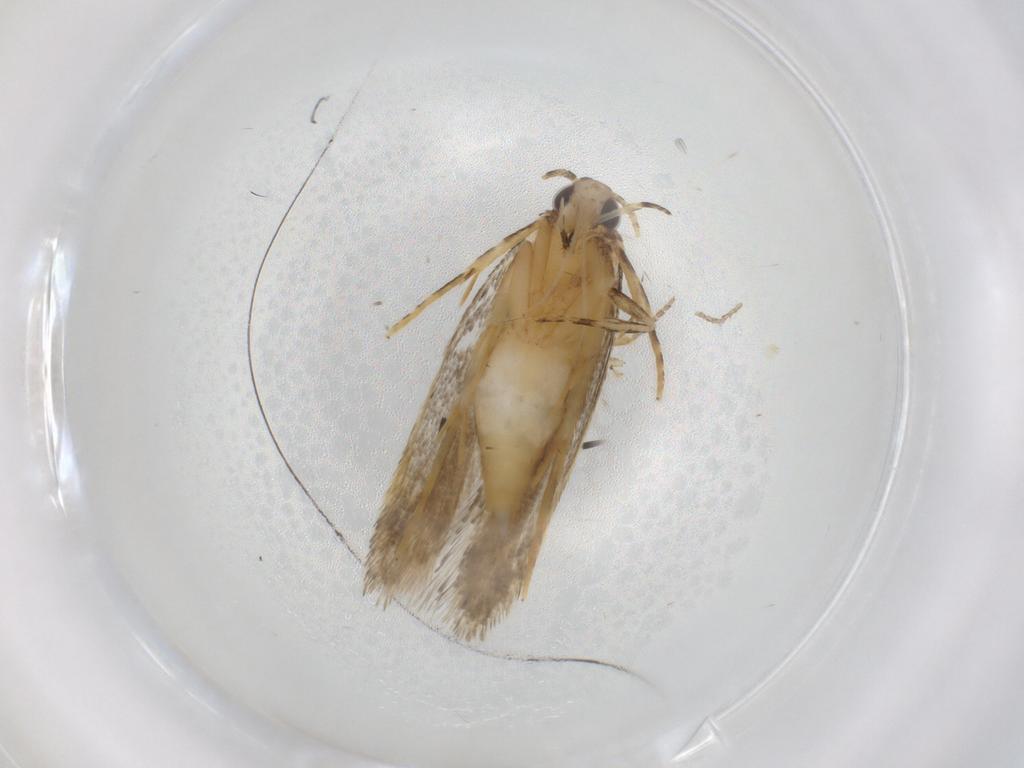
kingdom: Animalia
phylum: Arthropoda
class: Insecta
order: Lepidoptera
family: Autostichidae
